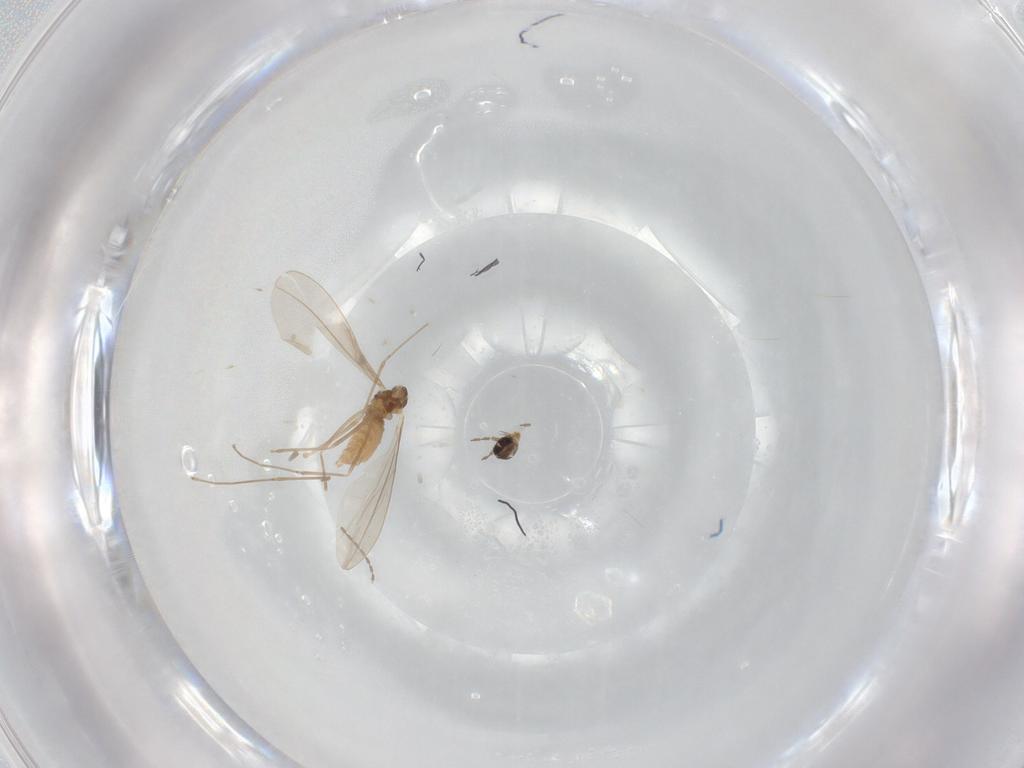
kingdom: Animalia
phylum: Arthropoda
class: Insecta
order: Diptera
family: Cecidomyiidae
